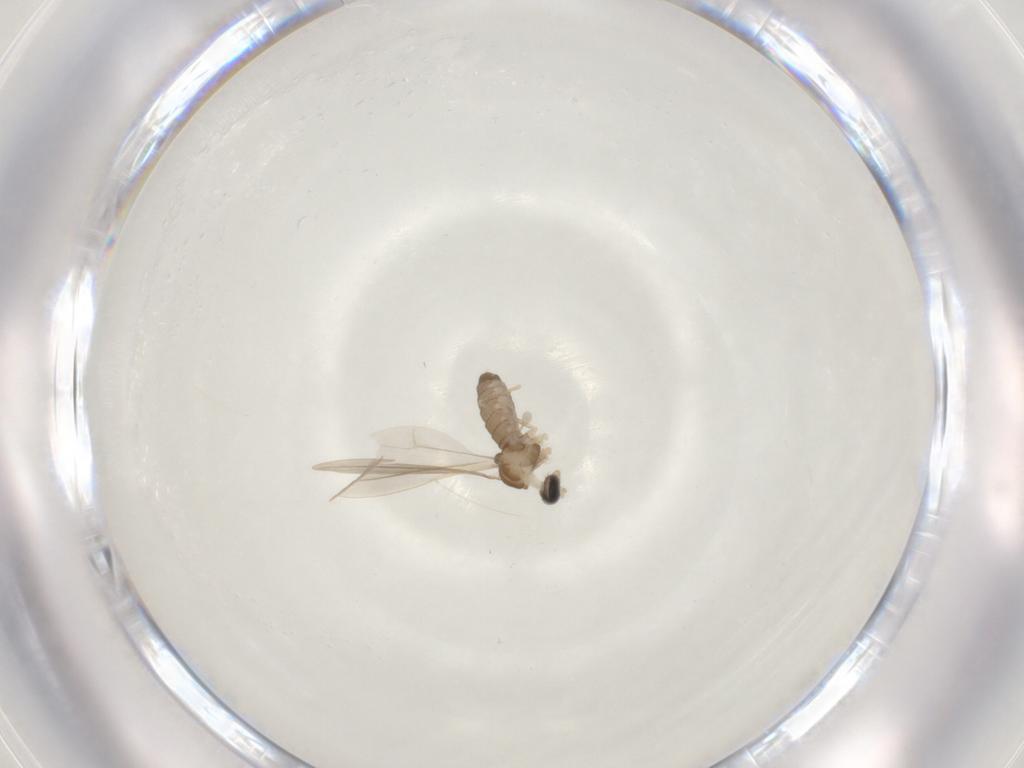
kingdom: Animalia
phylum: Arthropoda
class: Insecta
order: Diptera
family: Cecidomyiidae
